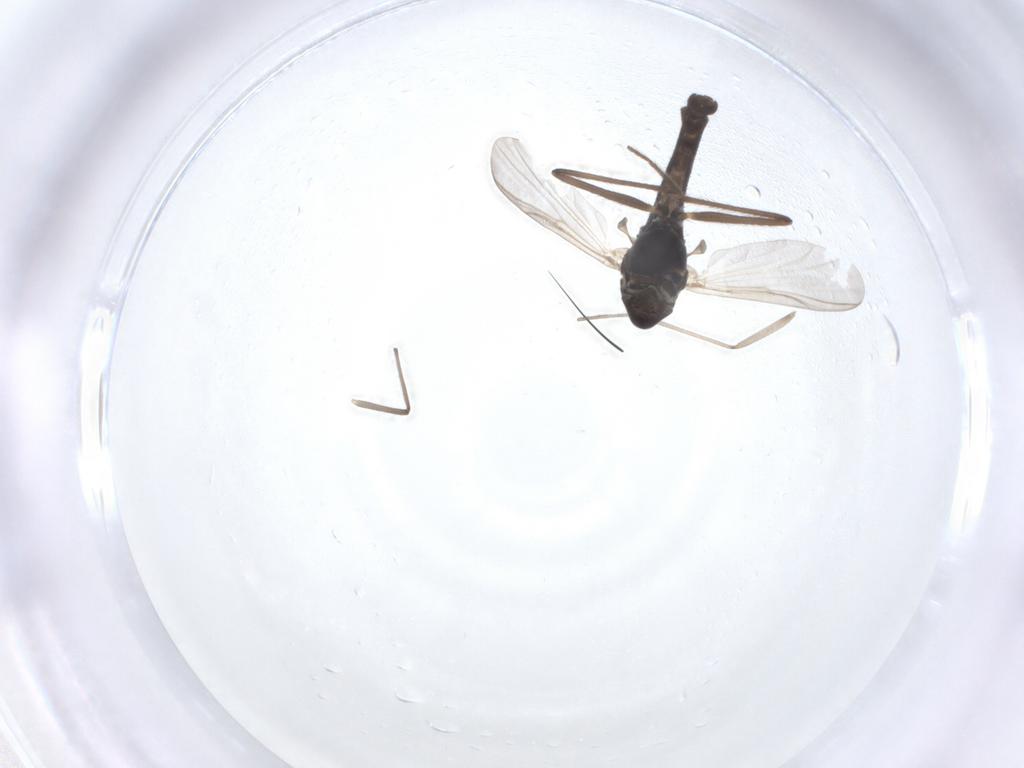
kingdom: Animalia
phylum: Arthropoda
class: Insecta
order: Diptera
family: Chironomidae
